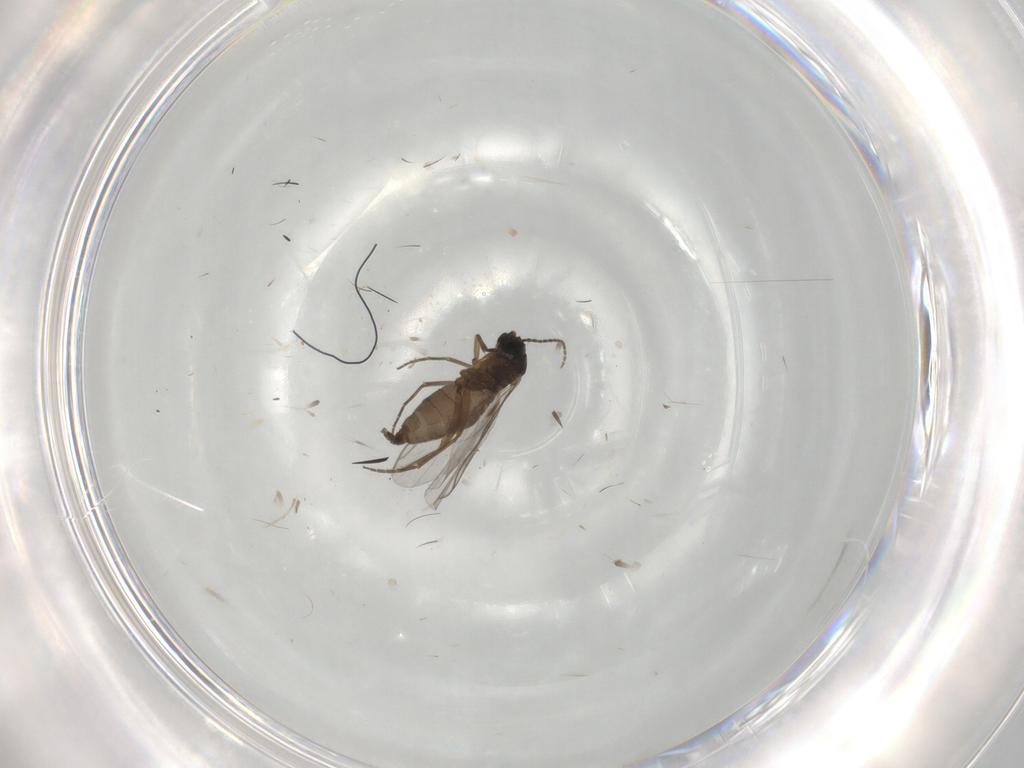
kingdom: Animalia
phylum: Arthropoda
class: Insecta
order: Diptera
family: Sciaridae
